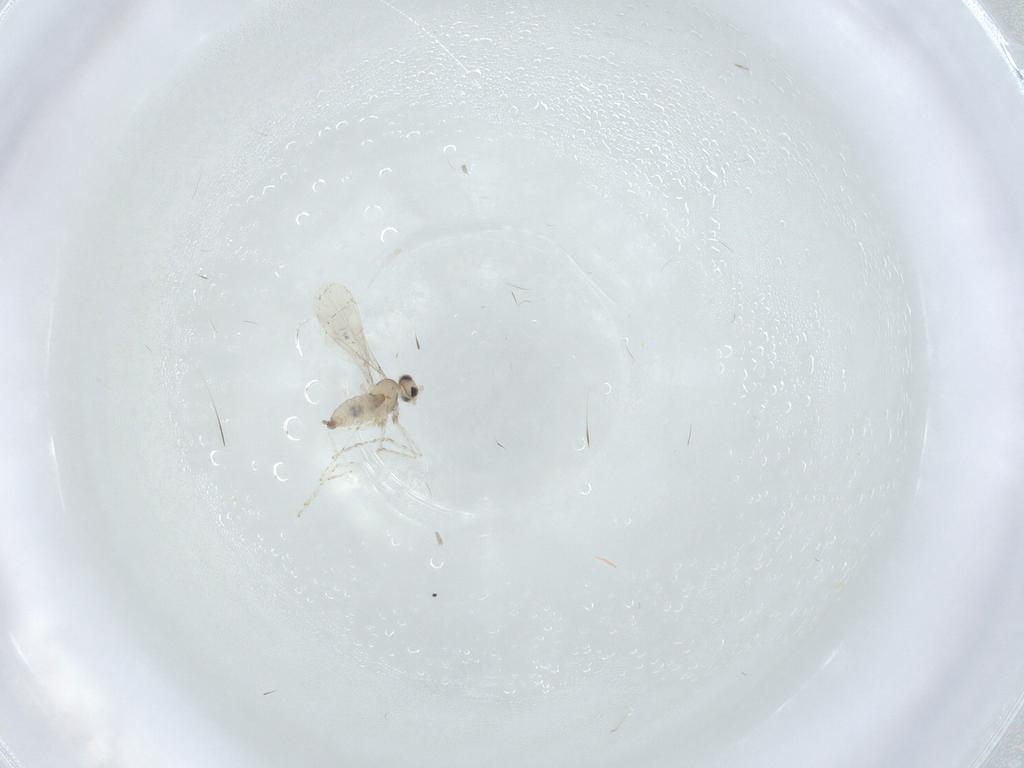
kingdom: Animalia
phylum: Arthropoda
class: Insecta
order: Diptera
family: Cecidomyiidae
